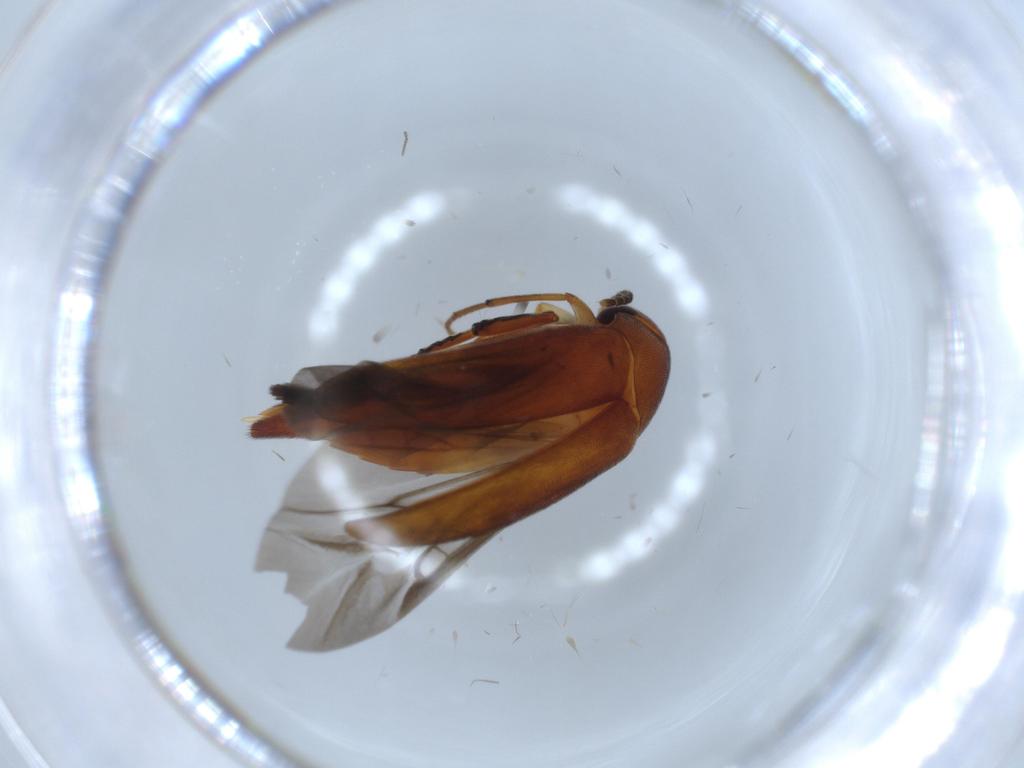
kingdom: Animalia
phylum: Arthropoda
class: Insecta
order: Coleoptera
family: Mordellidae
